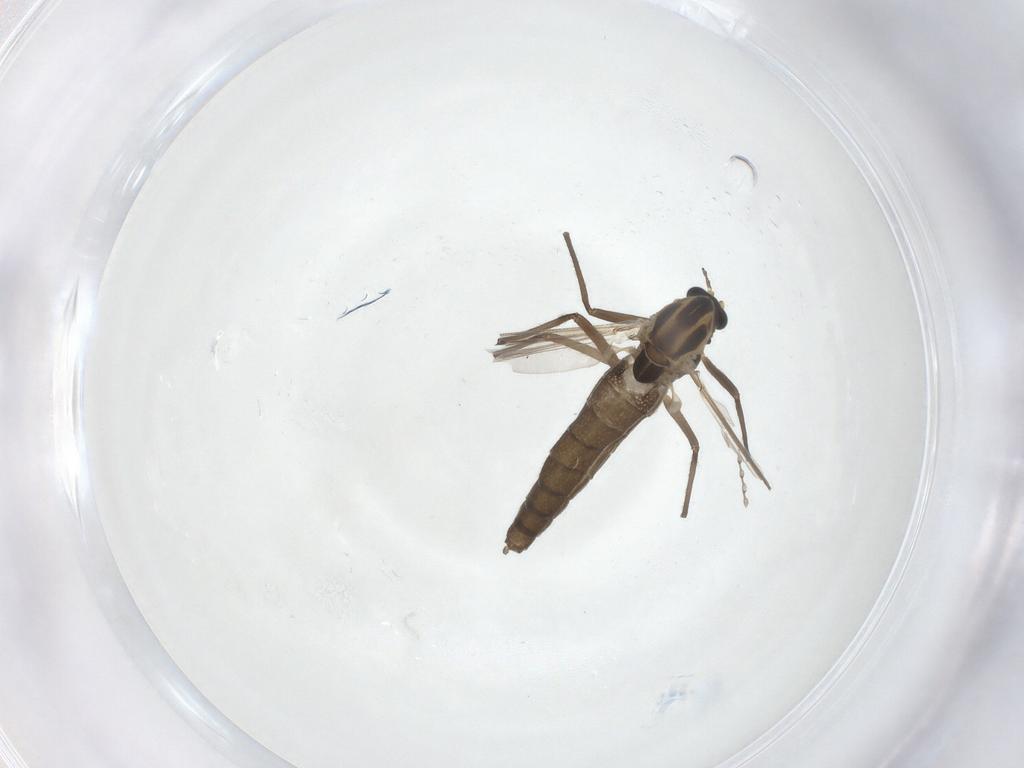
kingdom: Animalia
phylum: Arthropoda
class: Insecta
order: Diptera
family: Chironomidae
